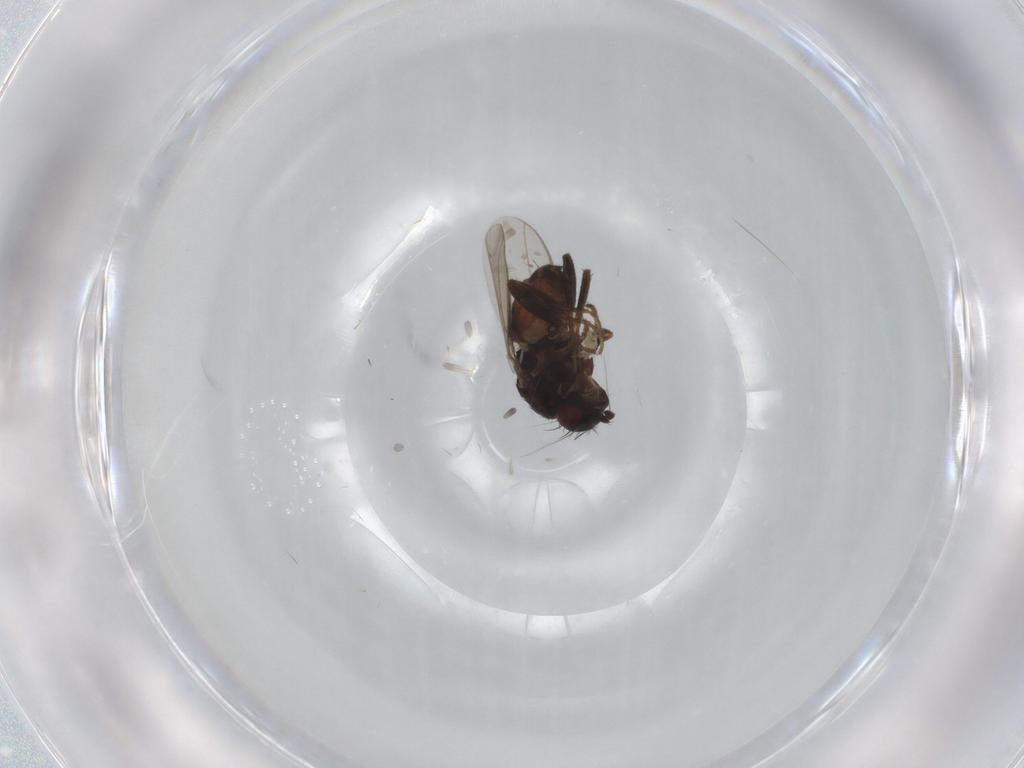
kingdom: Animalia
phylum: Arthropoda
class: Insecta
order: Diptera
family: Sphaeroceridae
